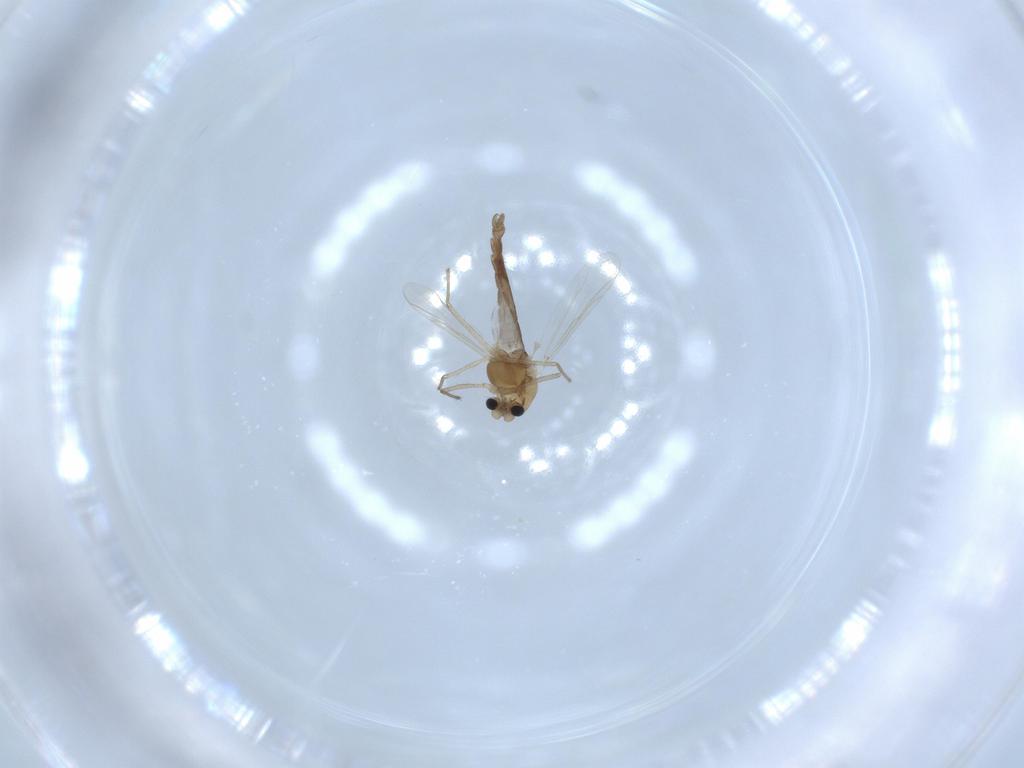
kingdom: Animalia
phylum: Arthropoda
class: Insecta
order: Diptera
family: Chironomidae
